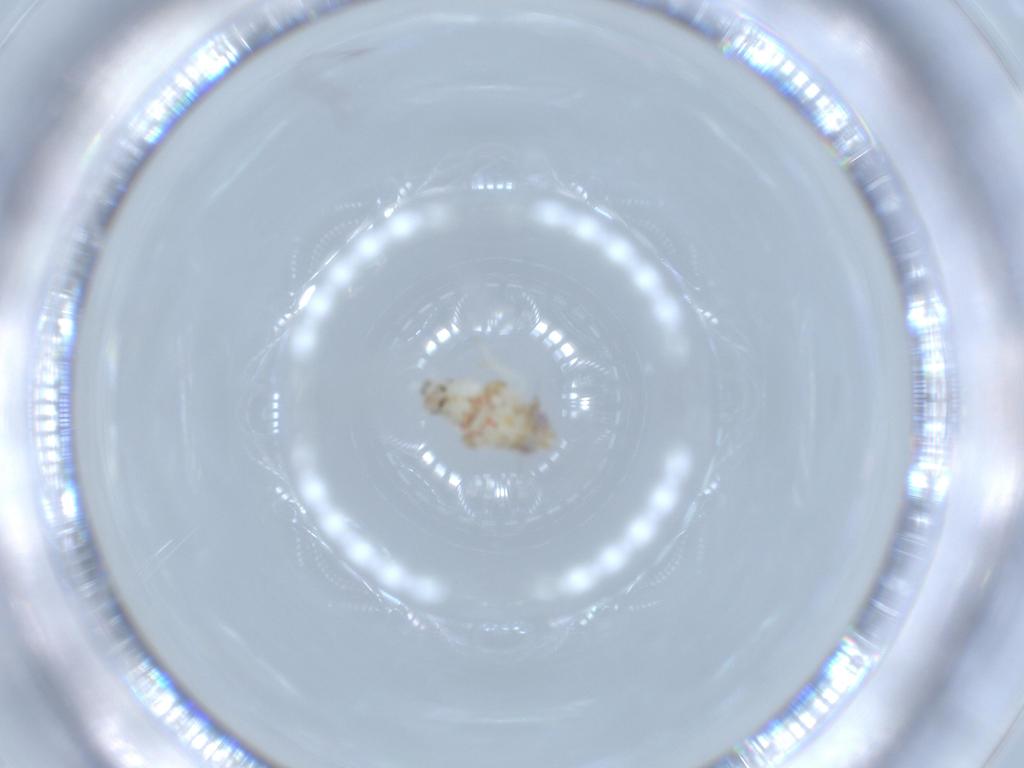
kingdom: Animalia
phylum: Arthropoda
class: Insecta
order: Hemiptera
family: Nogodinidae
